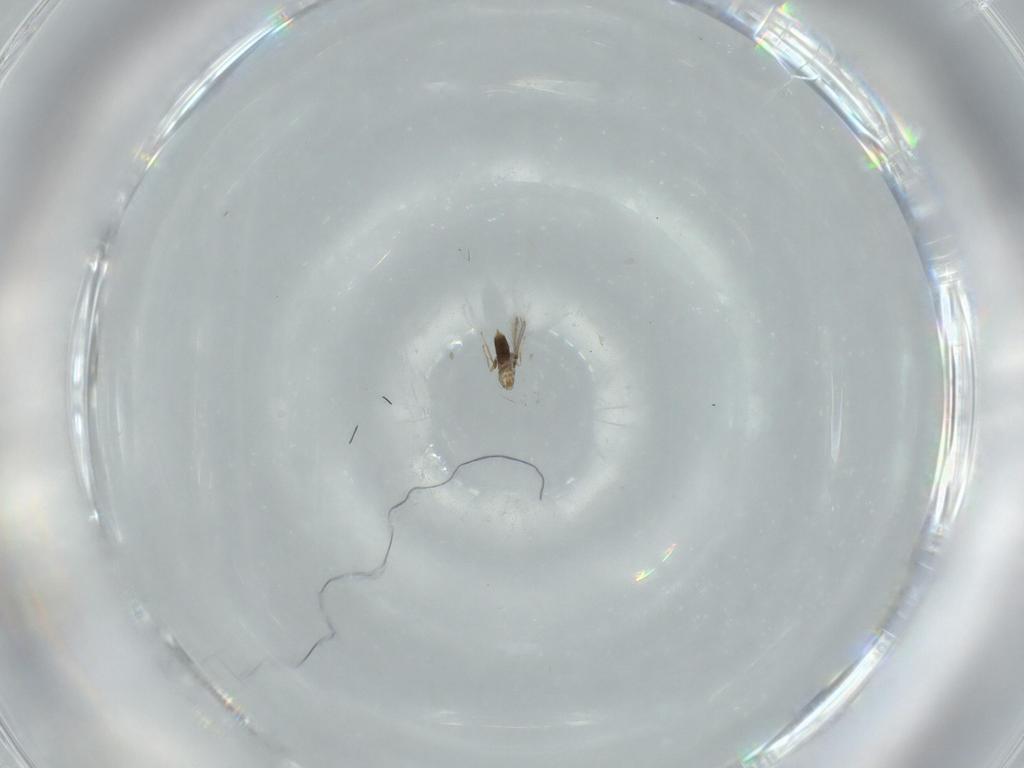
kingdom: Animalia
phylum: Arthropoda
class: Insecta
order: Hymenoptera
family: Mymaridae
